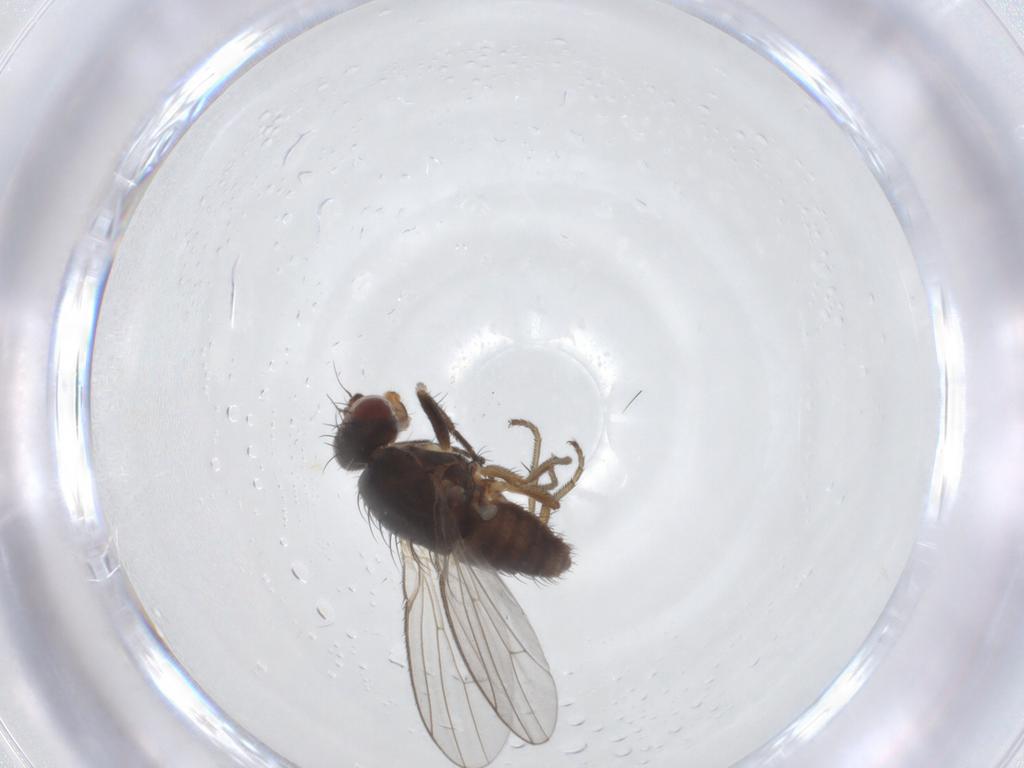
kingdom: Animalia
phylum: Arthropoda
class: Insecta
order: Diptera
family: Heleomyzidae
